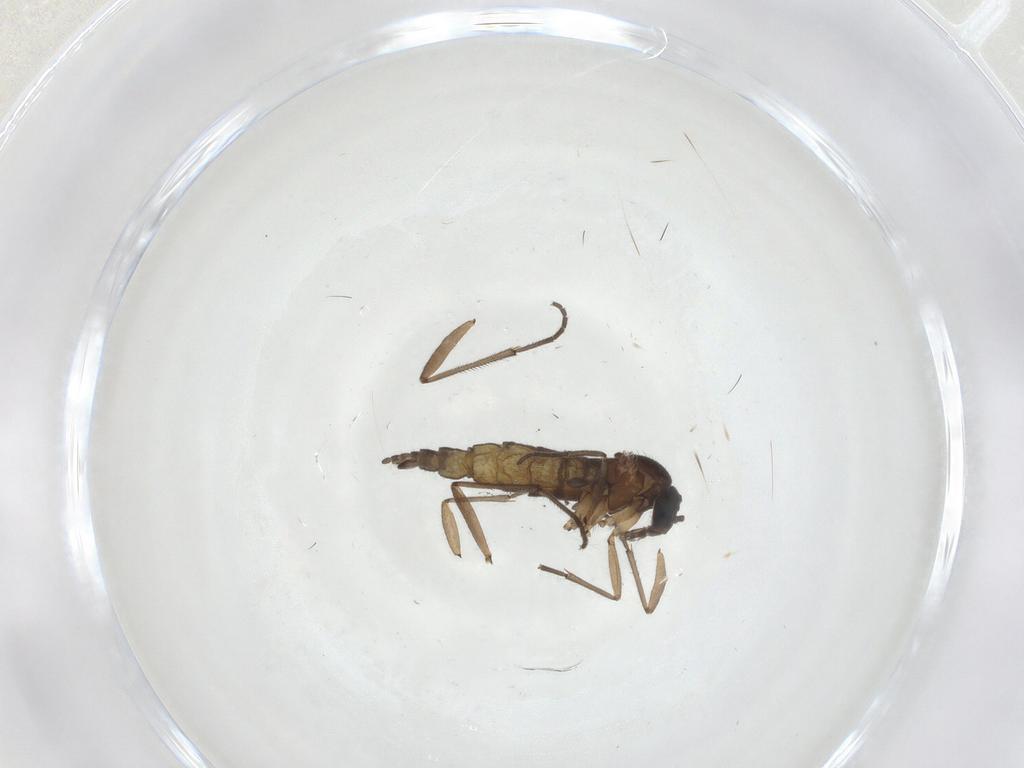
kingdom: Animalia
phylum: Arthropoda
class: Insecta
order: Diptera
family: Sciaridae
